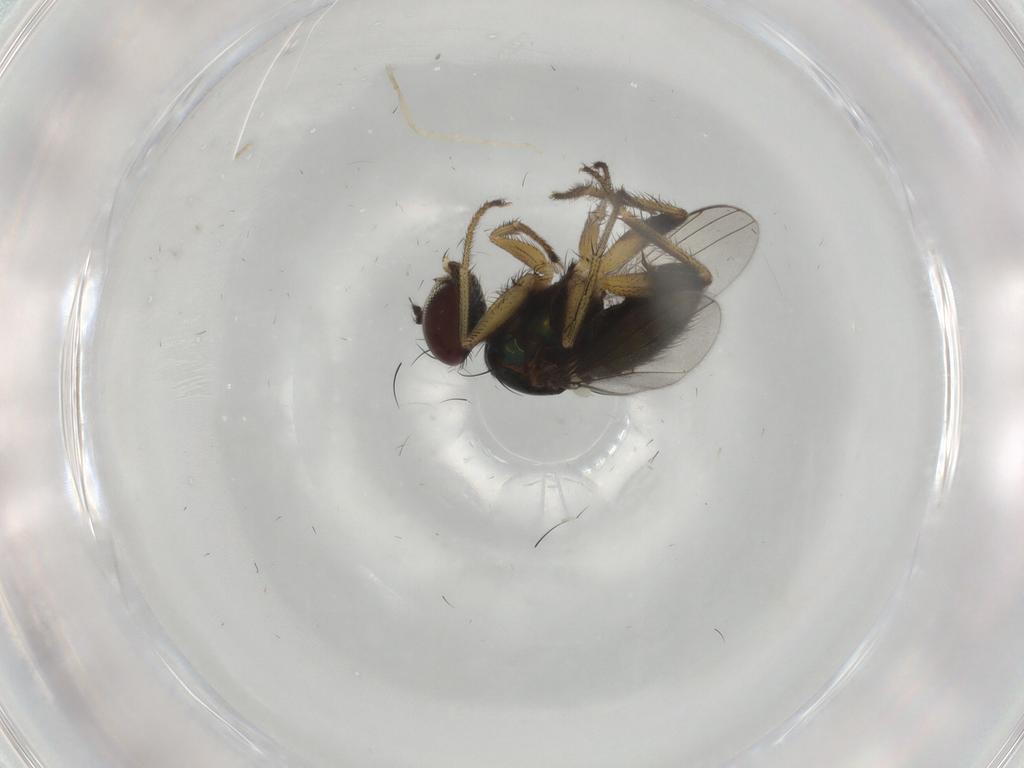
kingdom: Animalia
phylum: Arthropoda
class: Insecta
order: Diptera
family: Dolichopodidae
